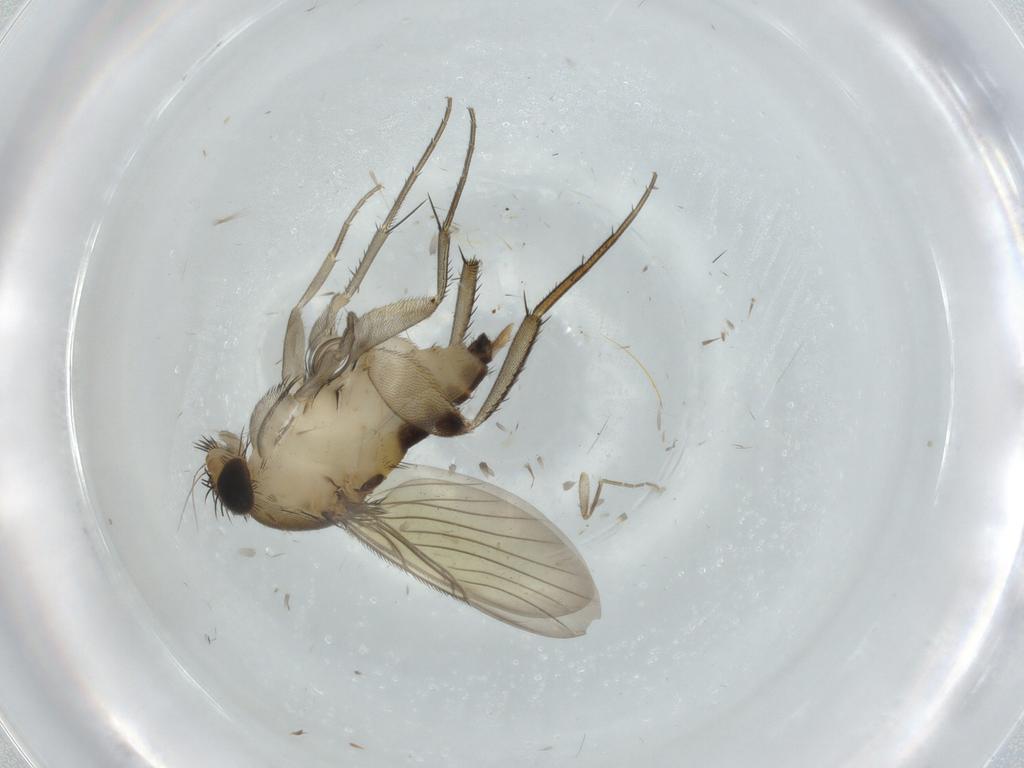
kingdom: Animalia
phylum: Arthropoda
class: Insecta
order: Diptera
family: Phoridae
